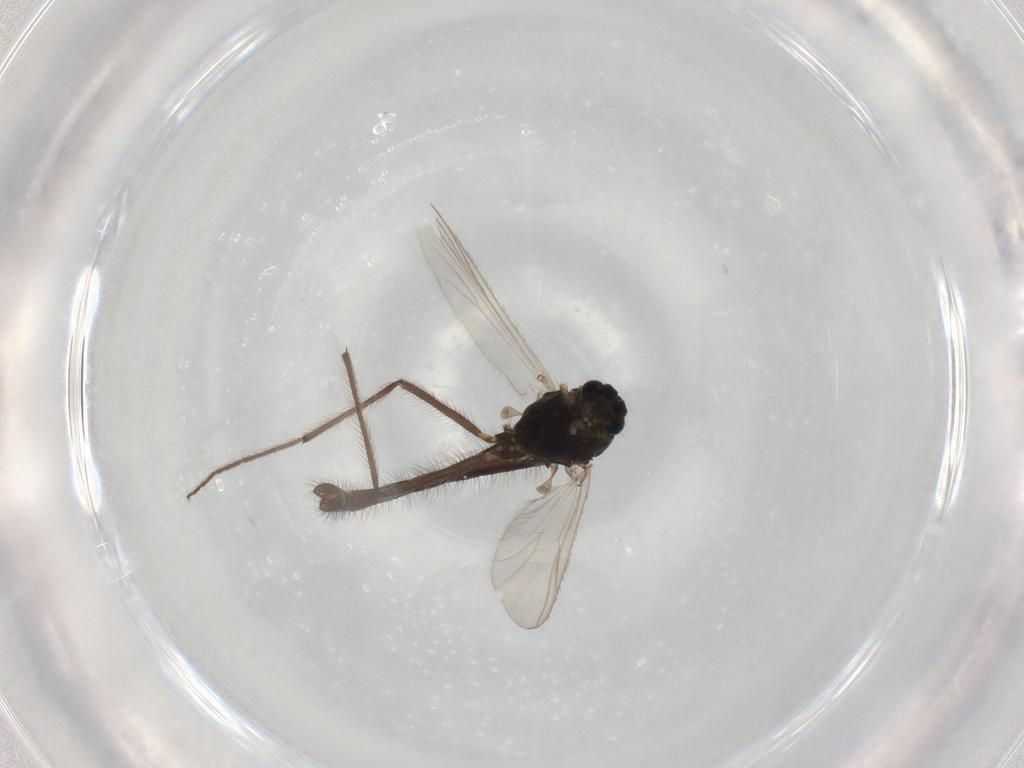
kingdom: Animalia
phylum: Arthropoda
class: Insecta
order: Diptera
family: Chironomidae
